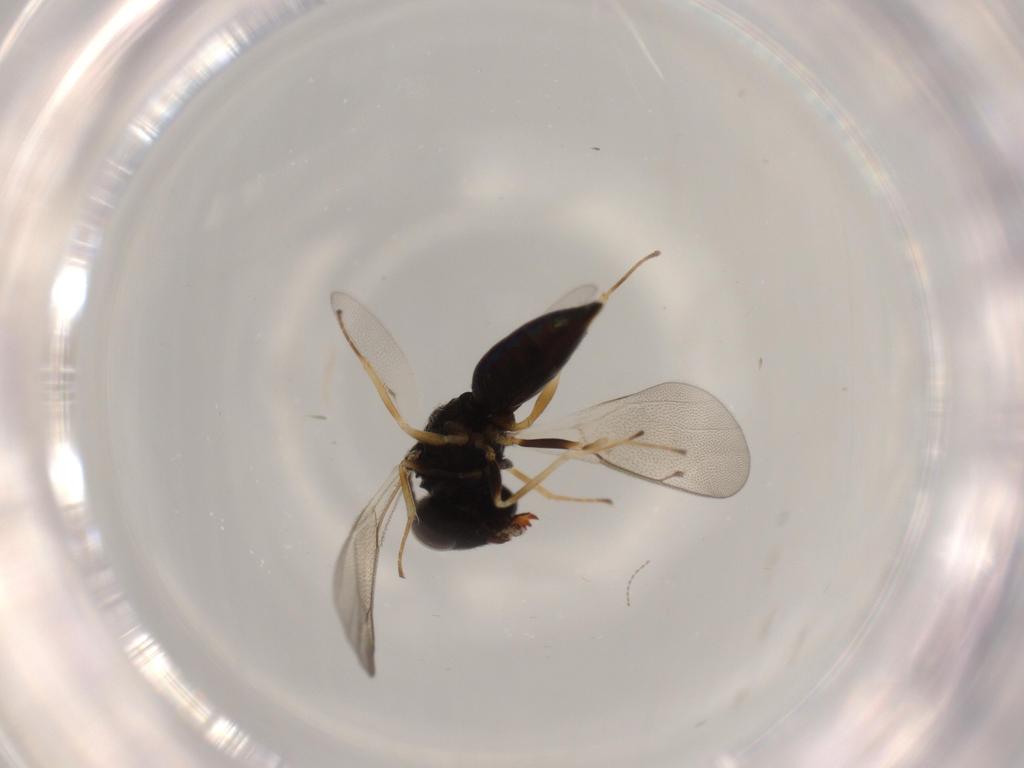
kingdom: Animalia
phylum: Arthropoda
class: Insecta
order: Hymenoptera
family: Pteromalidae
